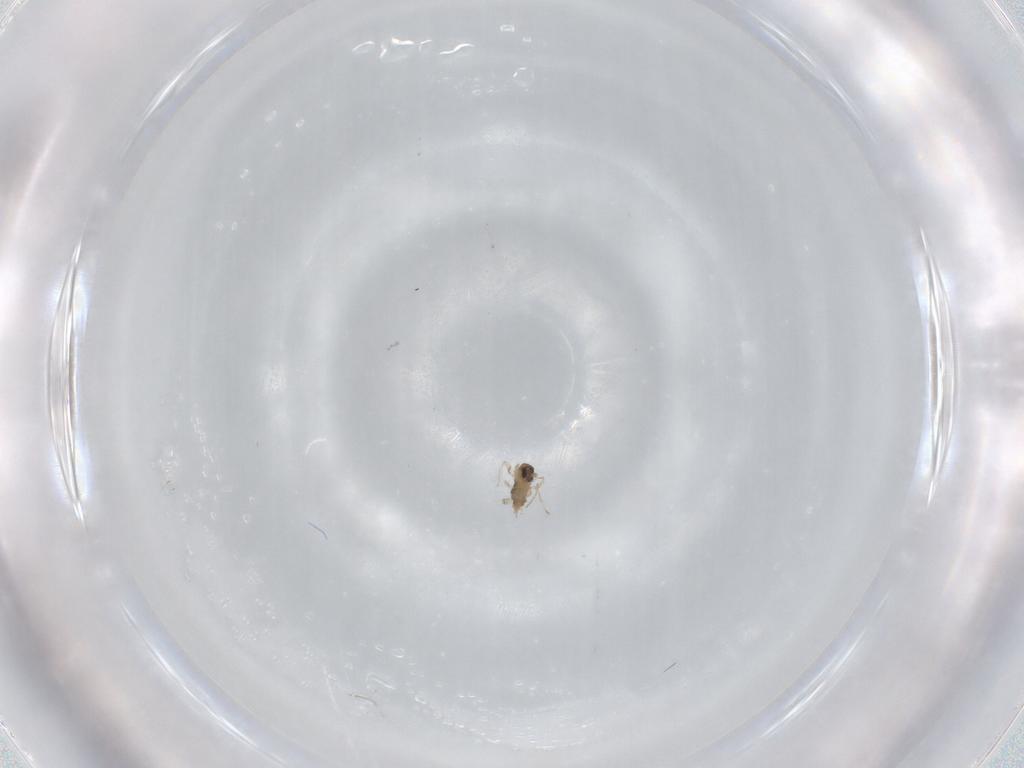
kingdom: Animalia
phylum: Arthropoda
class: Insecta
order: Diptera
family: Cecidomyiidae
